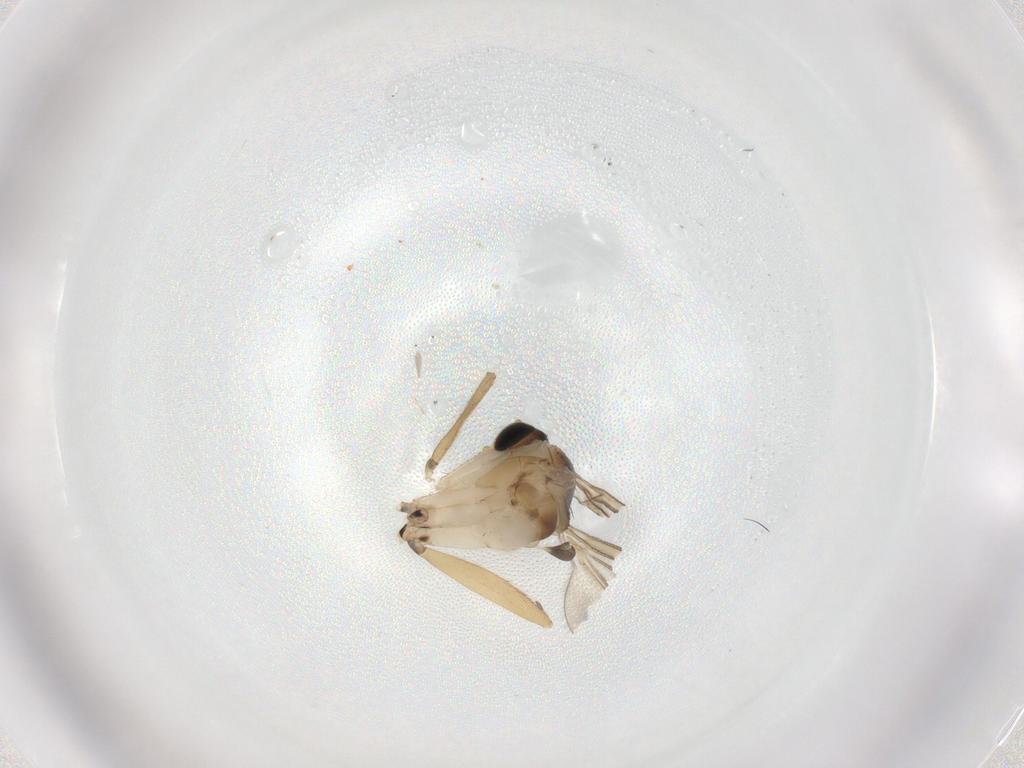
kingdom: Animalia
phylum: Arthropoda
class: Insecta
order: Diptera
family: Sciaridae
